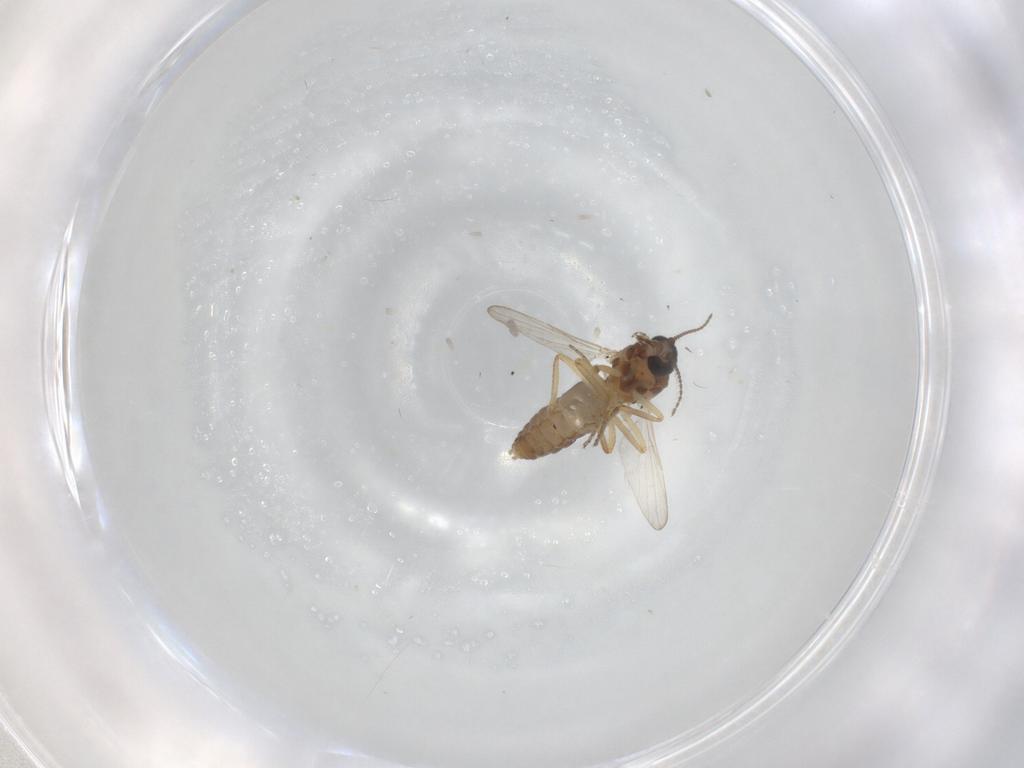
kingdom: Animalia
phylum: Arthropoda
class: Insecta
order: Diptera
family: Ceratopogonidae
